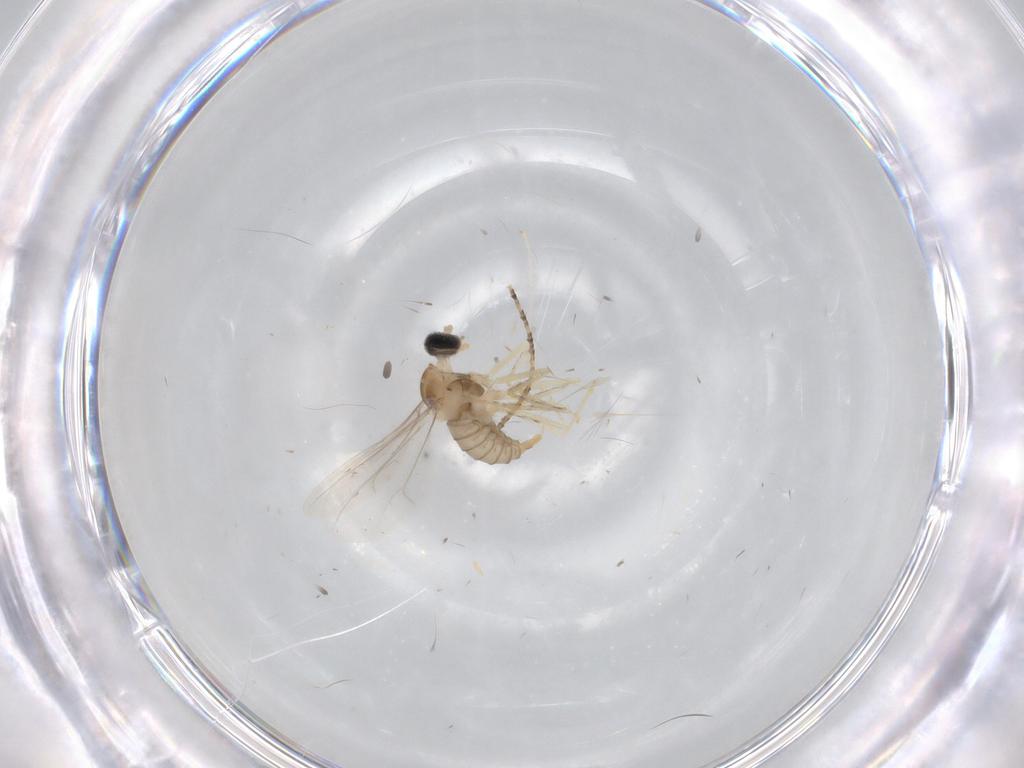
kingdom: Animalia
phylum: Arthropoda
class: Insecta
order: Diptera
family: Cecidomyiidae
